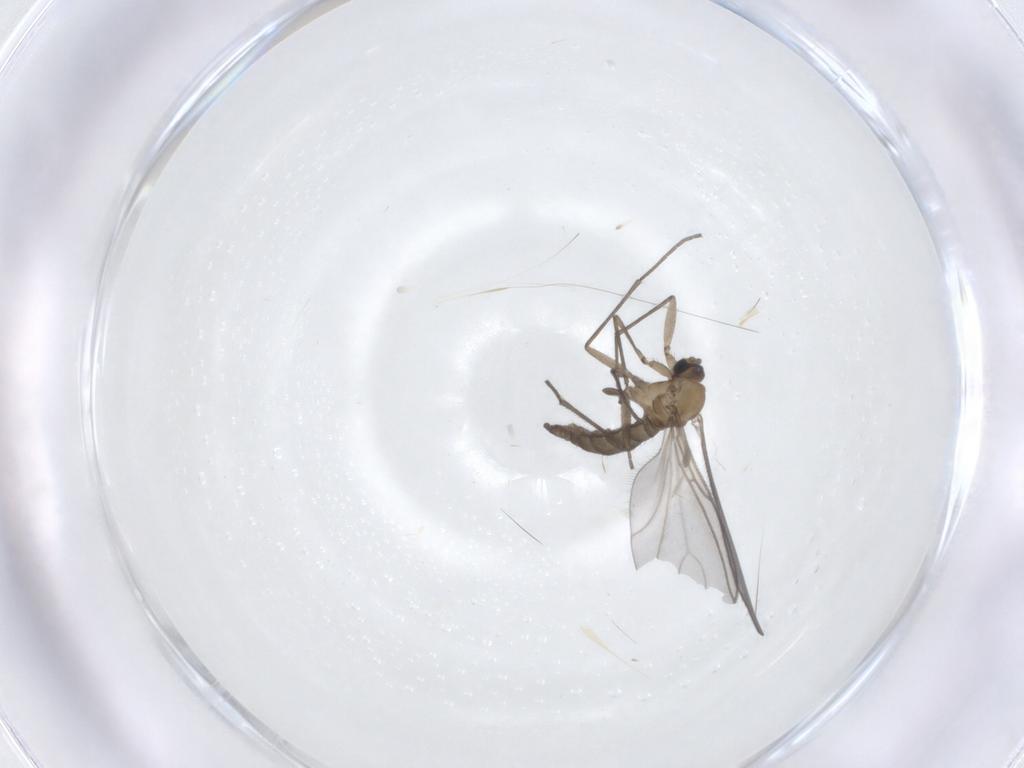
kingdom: Animalia
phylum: Arthropoda
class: Insecta
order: Diptera
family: Sciaridae
